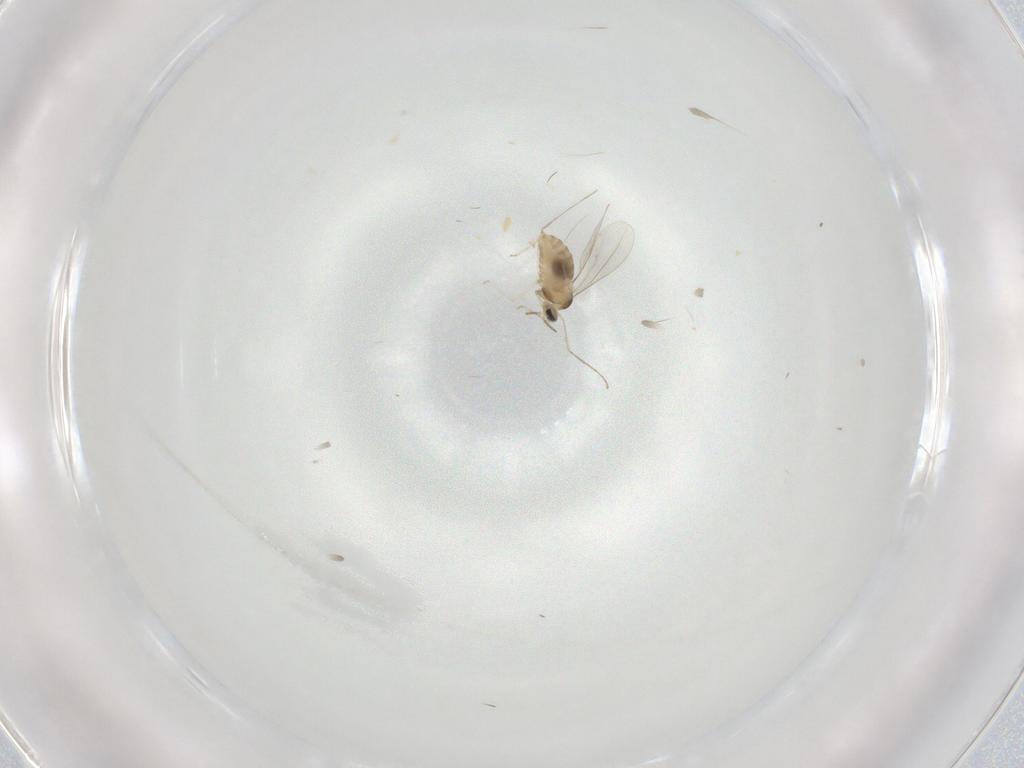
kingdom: Animalia
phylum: Arthropoda
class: Insecta
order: Diptera
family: Cecidomyiidae
